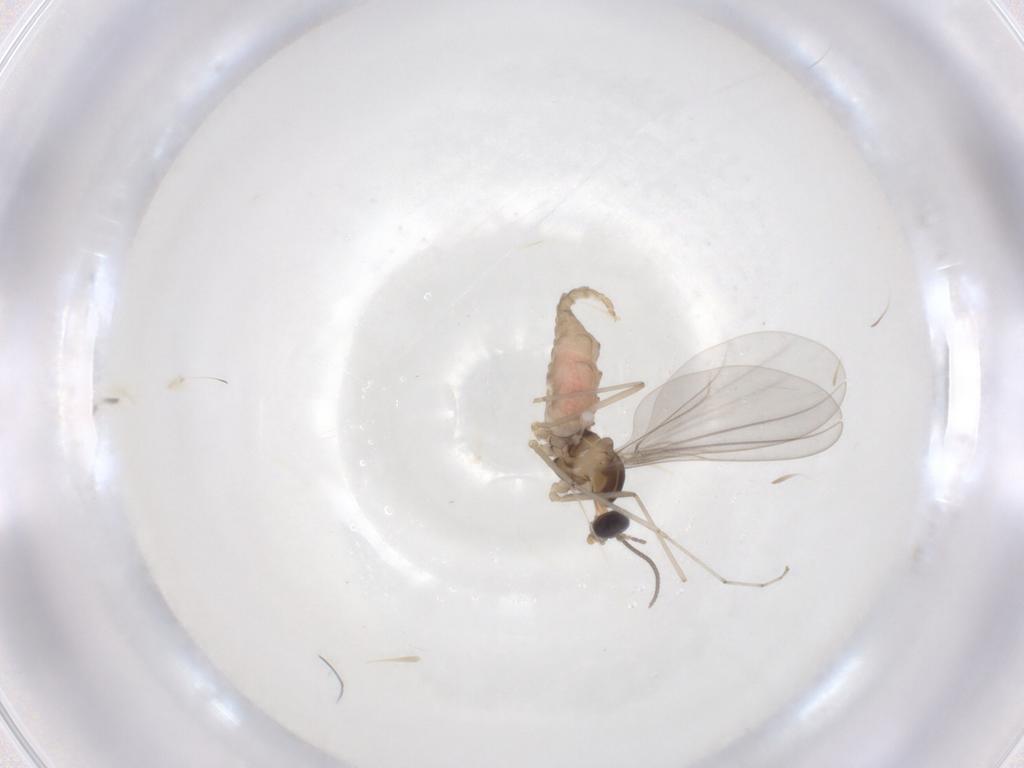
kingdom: Animalia
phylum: Arthropoda
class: Insecta
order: Diptera
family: Cecidomyiidae
